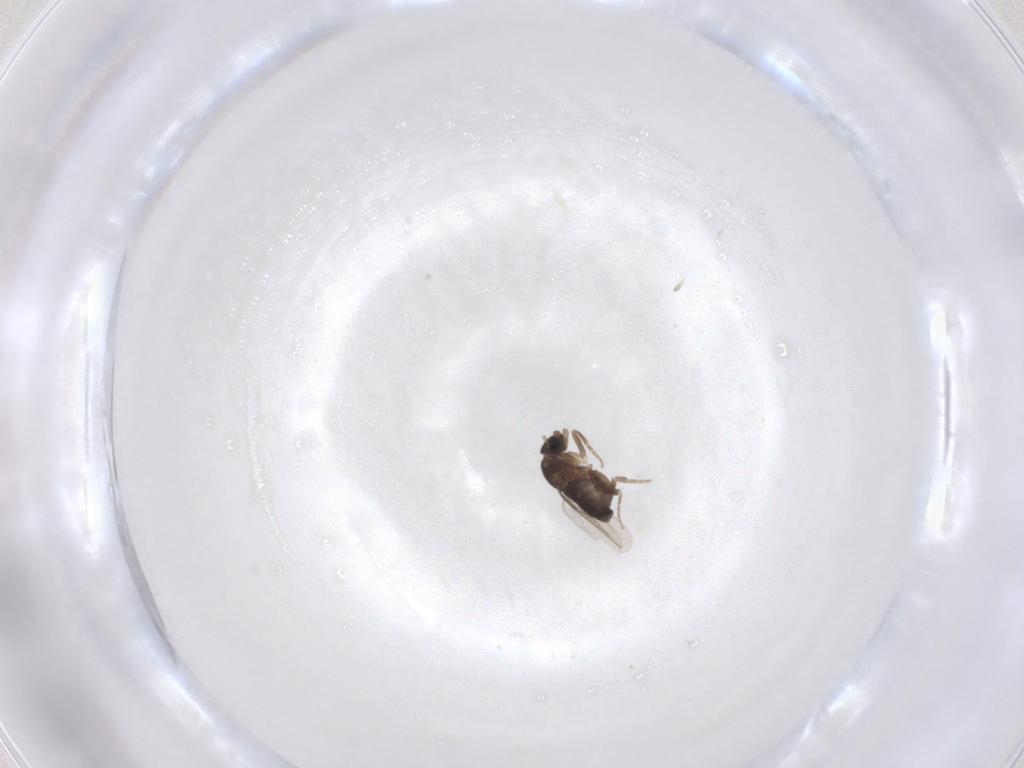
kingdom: Animalia
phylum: Arthropoda
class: Insecta
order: Diptera
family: Phoridae
